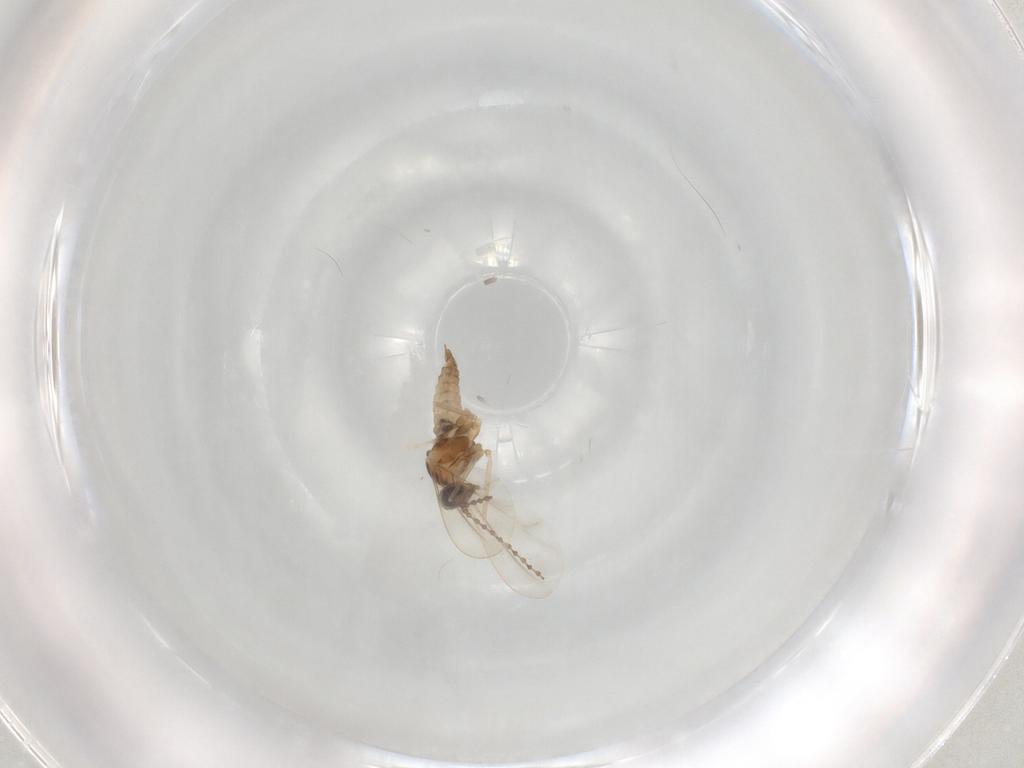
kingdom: Animalia
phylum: Arthropoda
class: Insecta
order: Diptera
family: Cecidomyiidae
